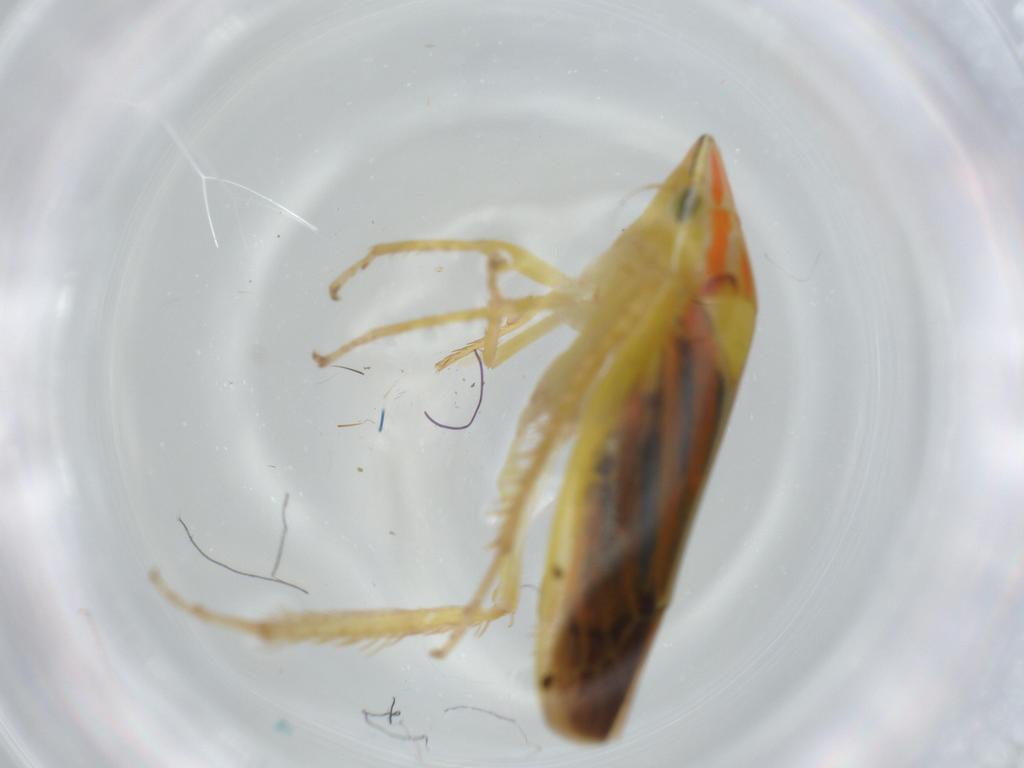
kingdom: Animalia
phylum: Arthropoda
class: Insecta
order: Hemiptera
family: Cicadellidae
